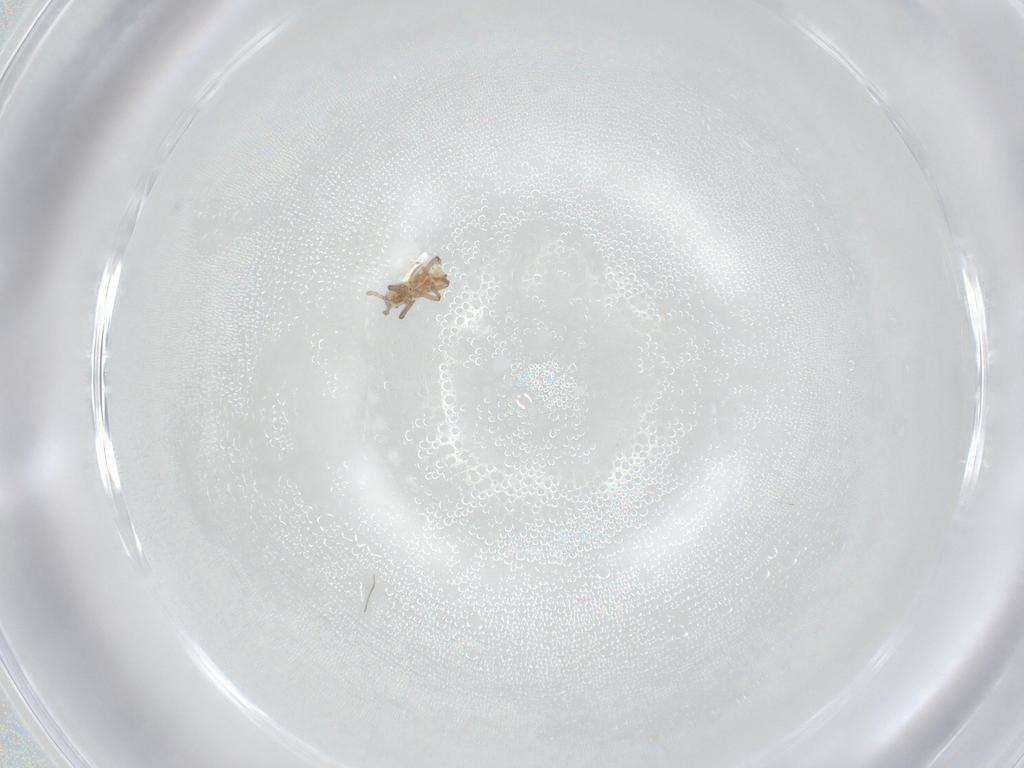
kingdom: Animalia
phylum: Arthropoda
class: Insecta
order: Hemiptera
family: Aphididae
